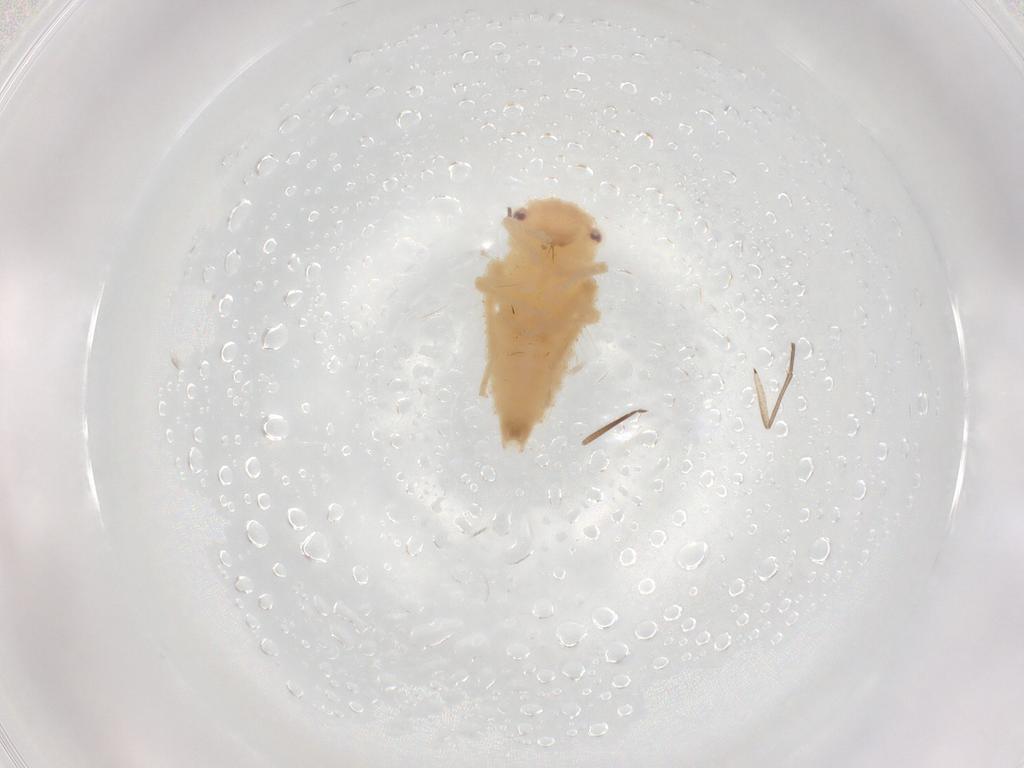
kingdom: Animalia
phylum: Arthropoda
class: Insecta
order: Hemiptera
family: Cicadellidae
